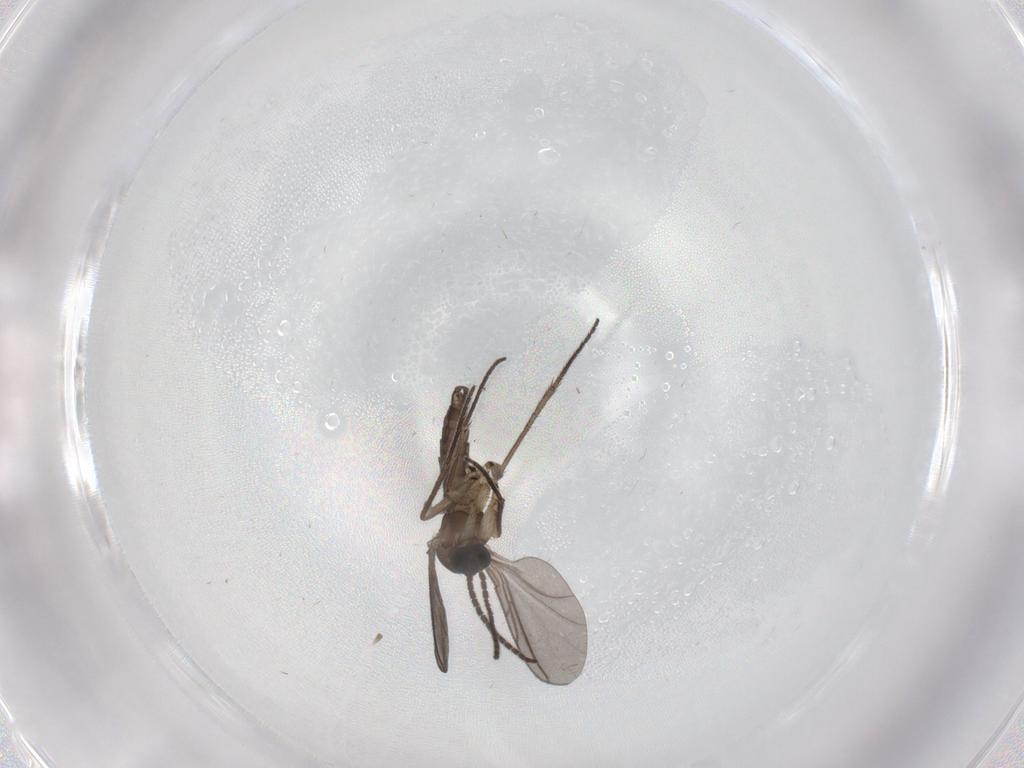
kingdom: Animalia
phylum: Arthropoda
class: Insecta
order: Diptera
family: Sciaridae
